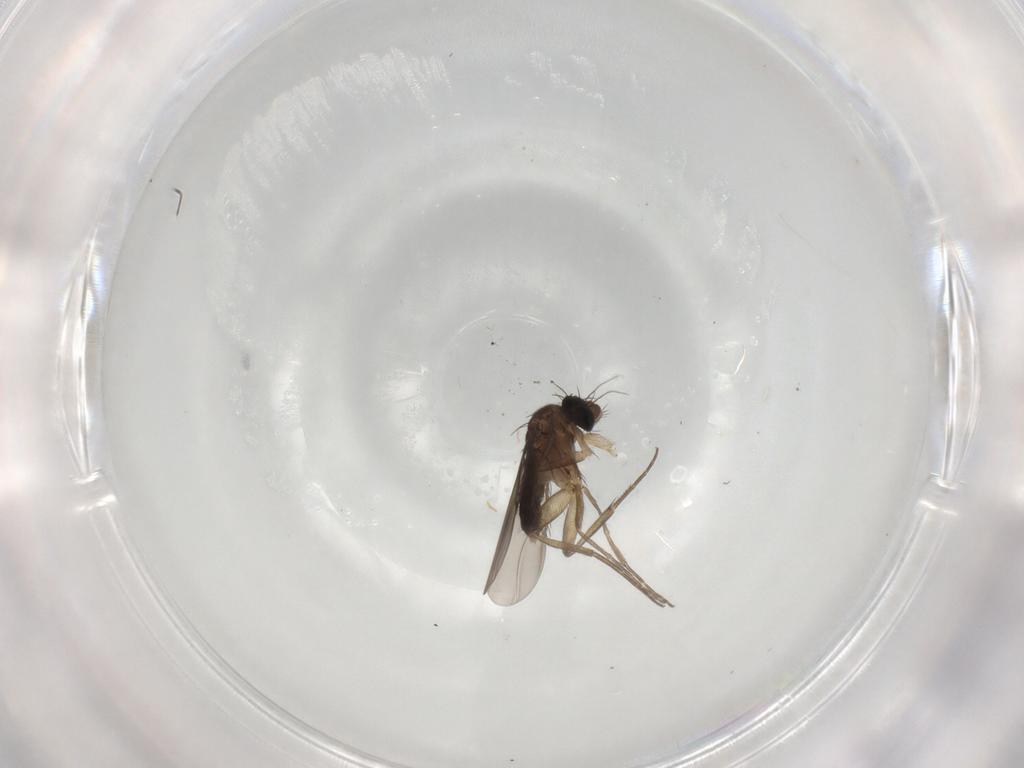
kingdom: Animalia
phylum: Arthropoda
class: Insecta
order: Diptera
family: Phoridae
